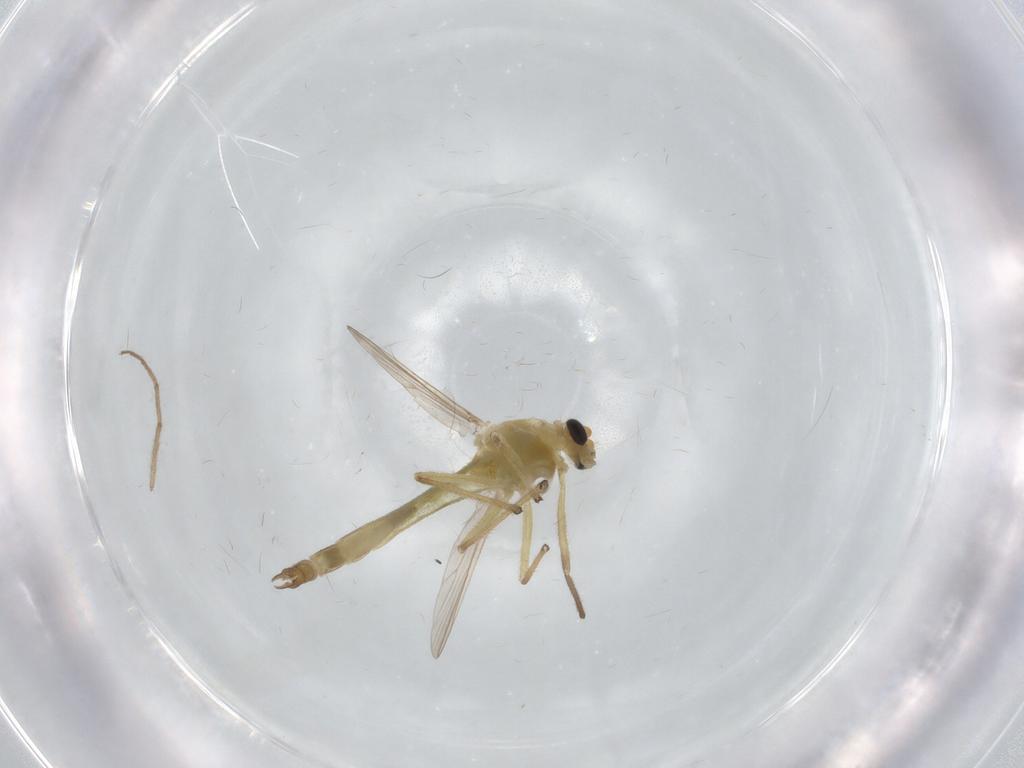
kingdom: Animalia
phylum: Arthropoda
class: Insecta
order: Diptera
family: Chironomidae
